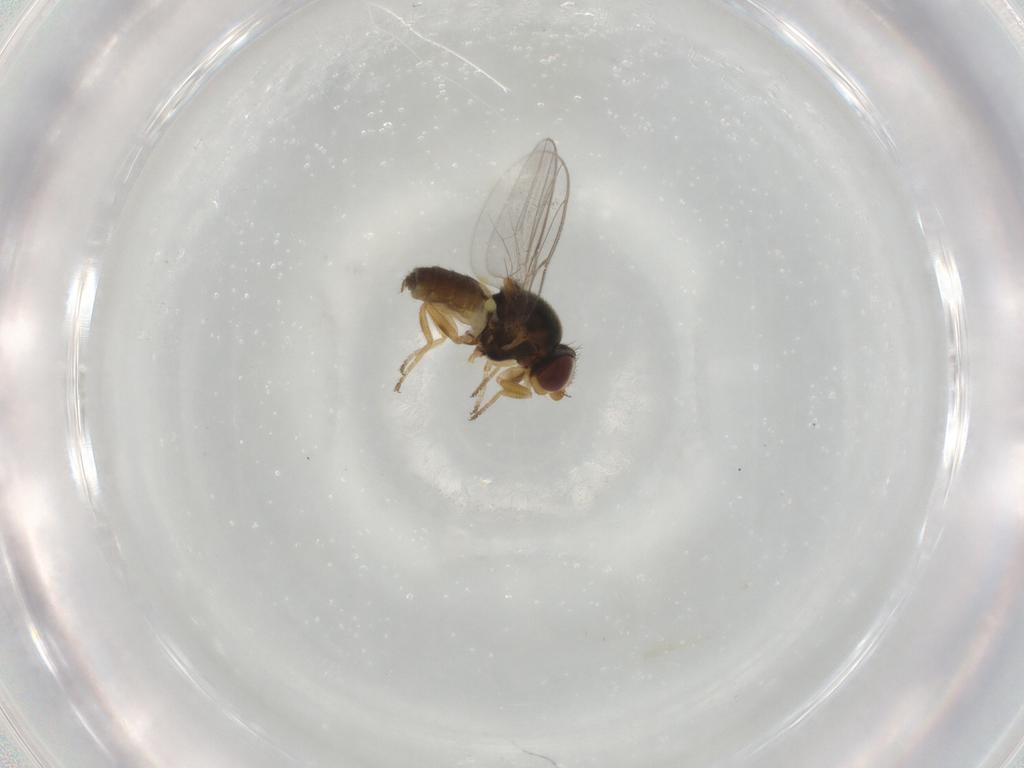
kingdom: Animalia
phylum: Arthropoda
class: Insecta
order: Diptera
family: Chloropidae
